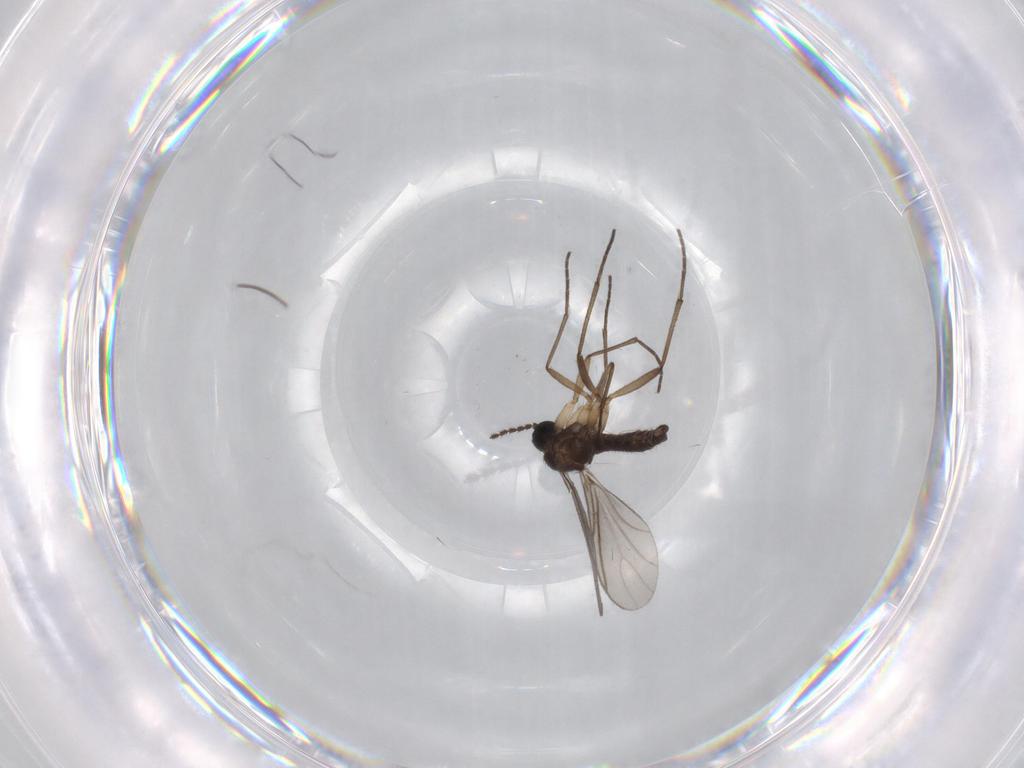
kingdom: Animalia
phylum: Arthropoda
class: Insecta
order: Diptera
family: Sciaridae
